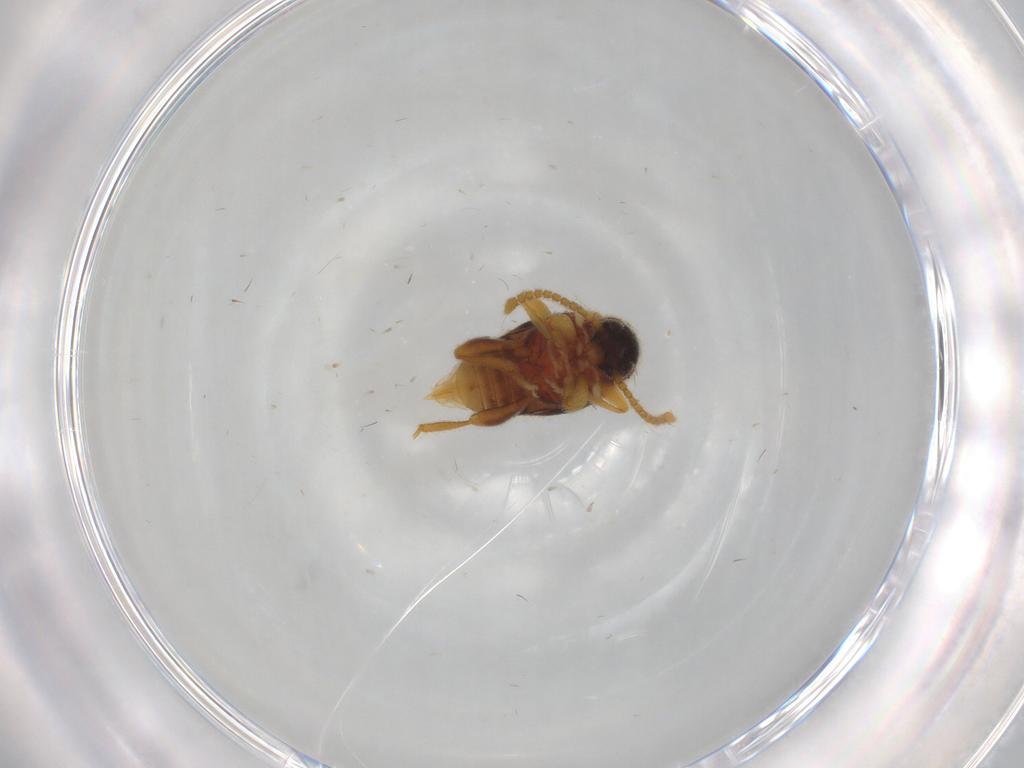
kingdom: Animalia
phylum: Arthropoda
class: Insecta
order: Coleoptera
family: Aderidae
